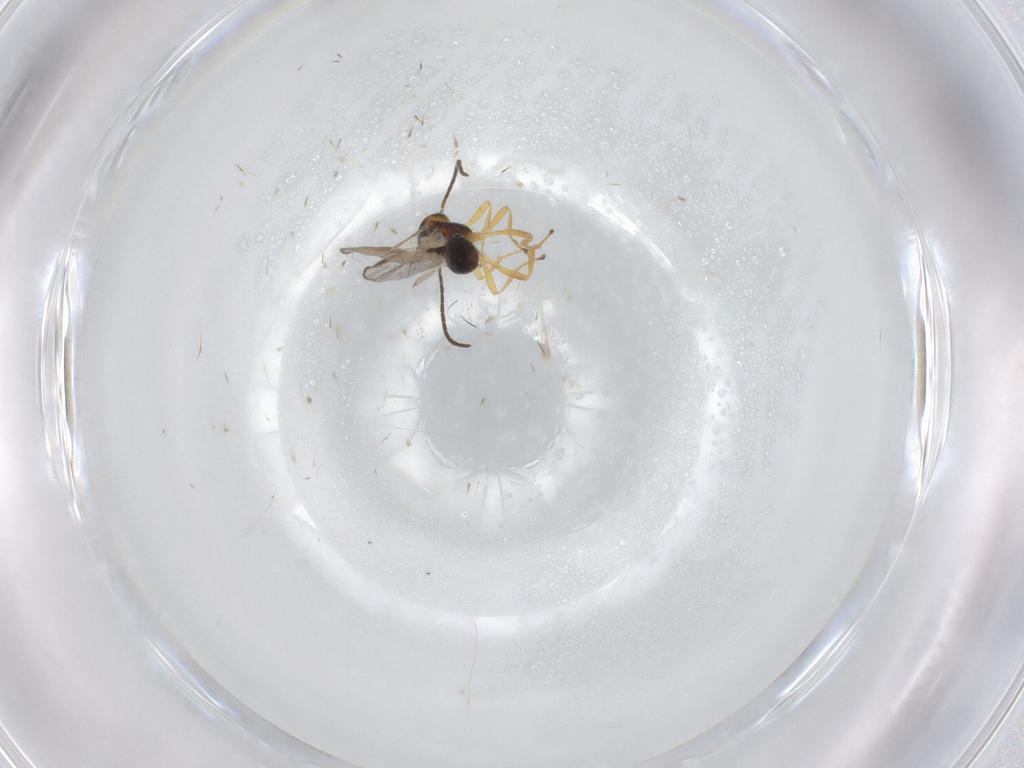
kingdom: Animalia
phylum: Arthropoda
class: Insecta
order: Hymenoptera
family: Braconidae
